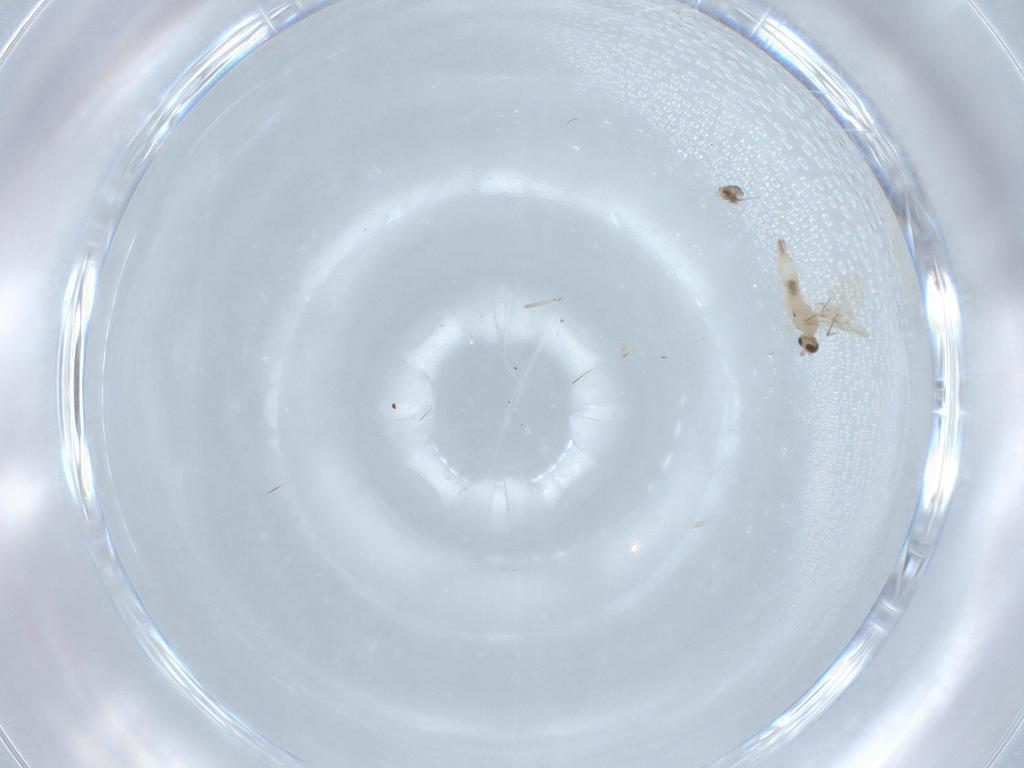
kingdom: Animalia
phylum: Arthropoda
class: Insecta
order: Diptera
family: Cecidomyiidae
